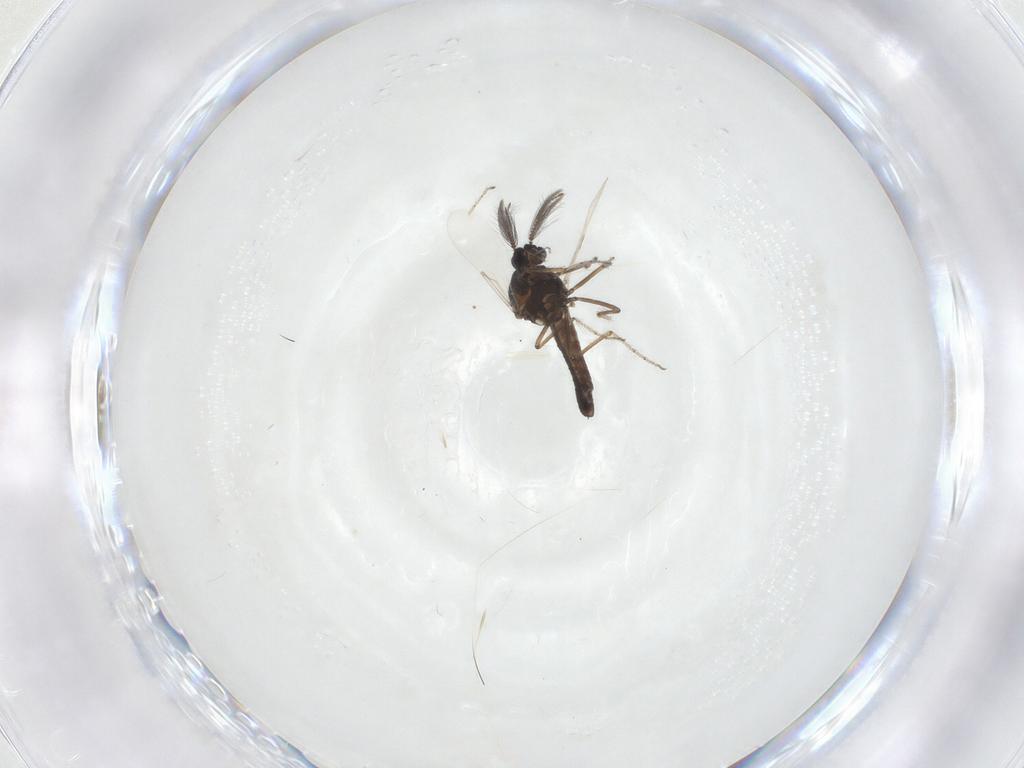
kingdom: Animalia
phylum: Arthropoda
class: Insecta
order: Diptera
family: Ceratopogonidae
